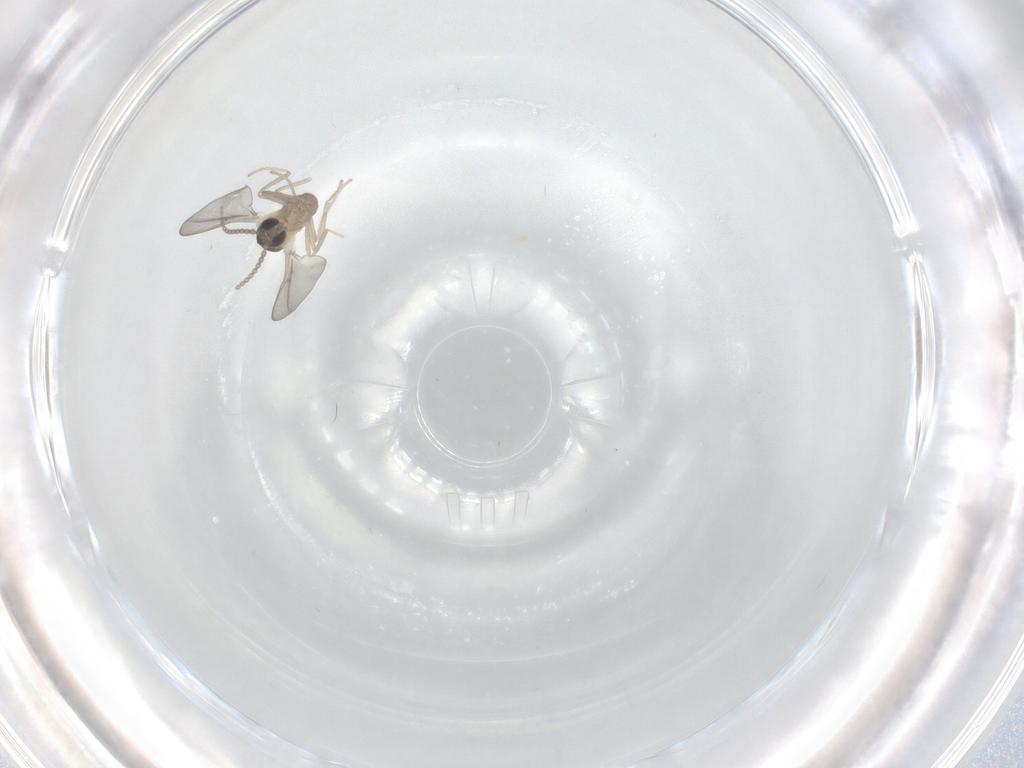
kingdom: Animalia
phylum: Arthropoda
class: Insecta
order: Diptera
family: Cecidomyiidae
